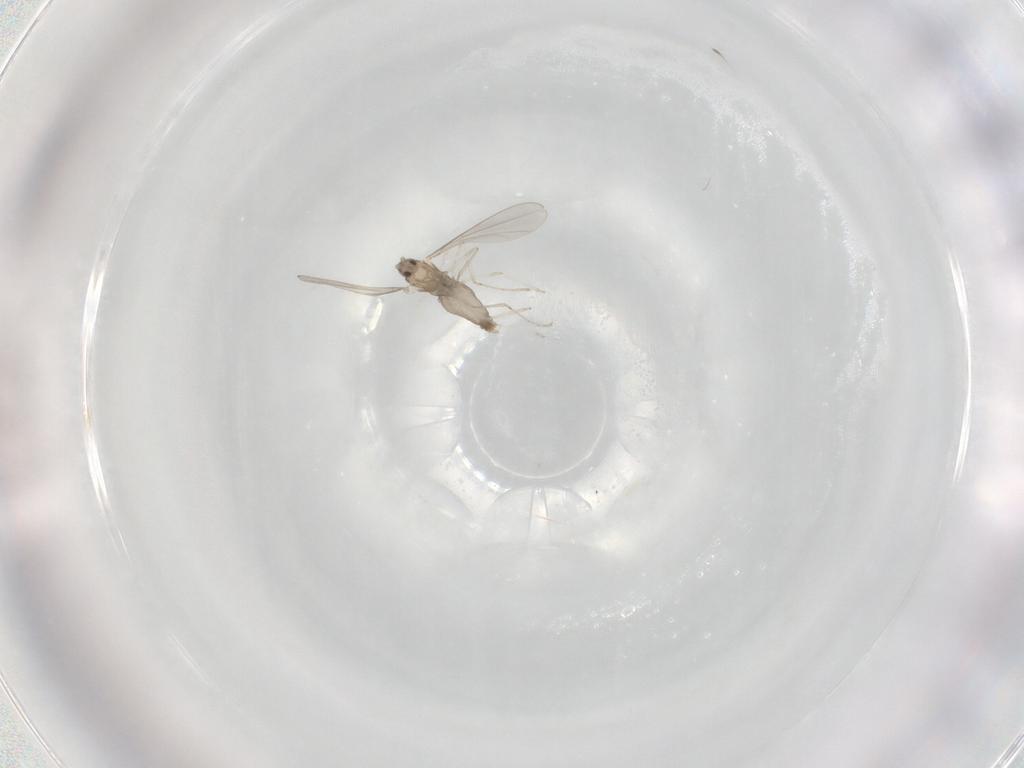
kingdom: Animalia
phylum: Arthropoda
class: Insecta
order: Diptera
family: Cecidomyiidae
